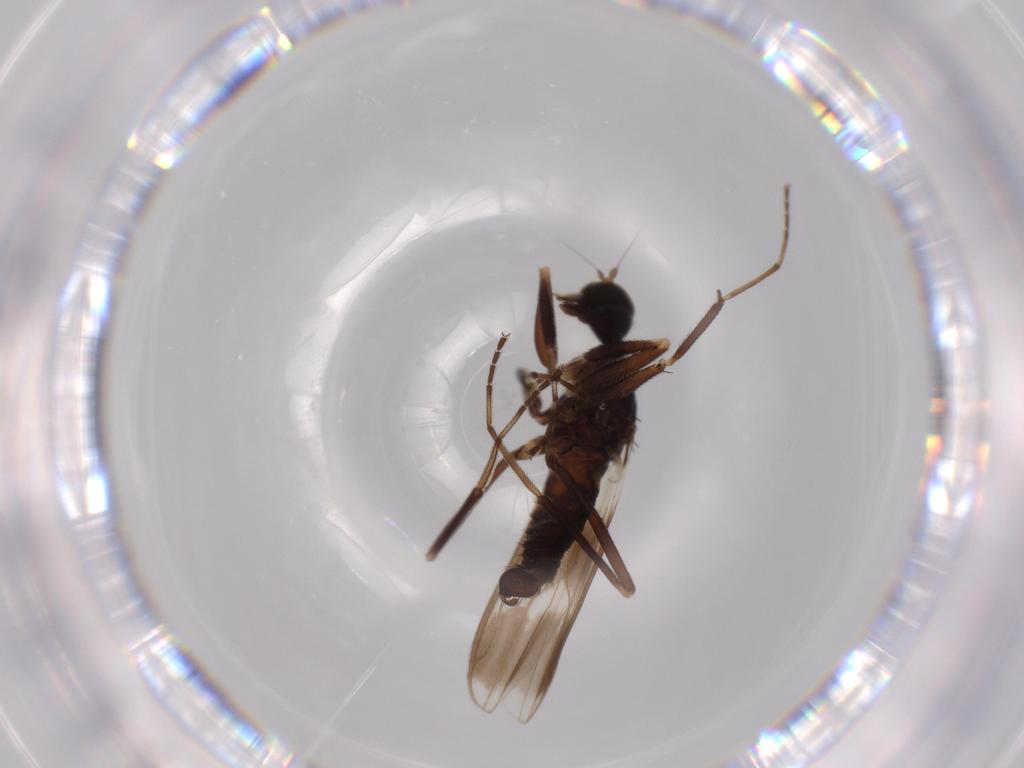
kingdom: Animalia
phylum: Arthropoda
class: Insecta
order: Diptera
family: Hybotidae
